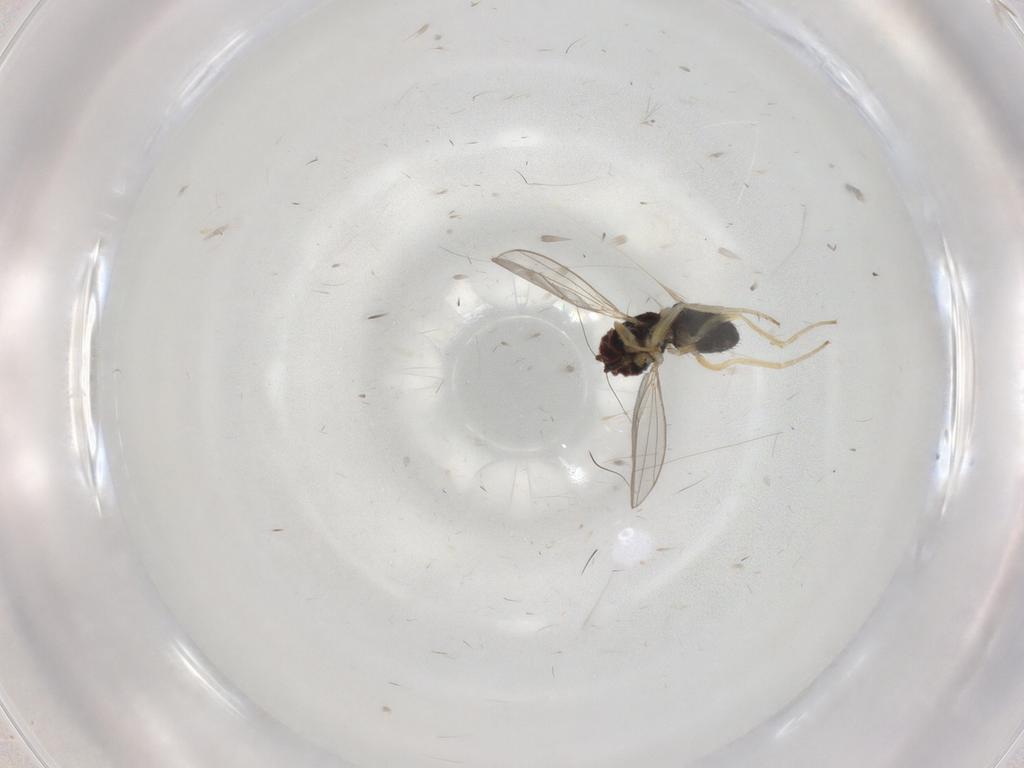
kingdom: Animalia
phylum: Arthropoda
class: Insecta
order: Diptera
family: Dolichopodidae
